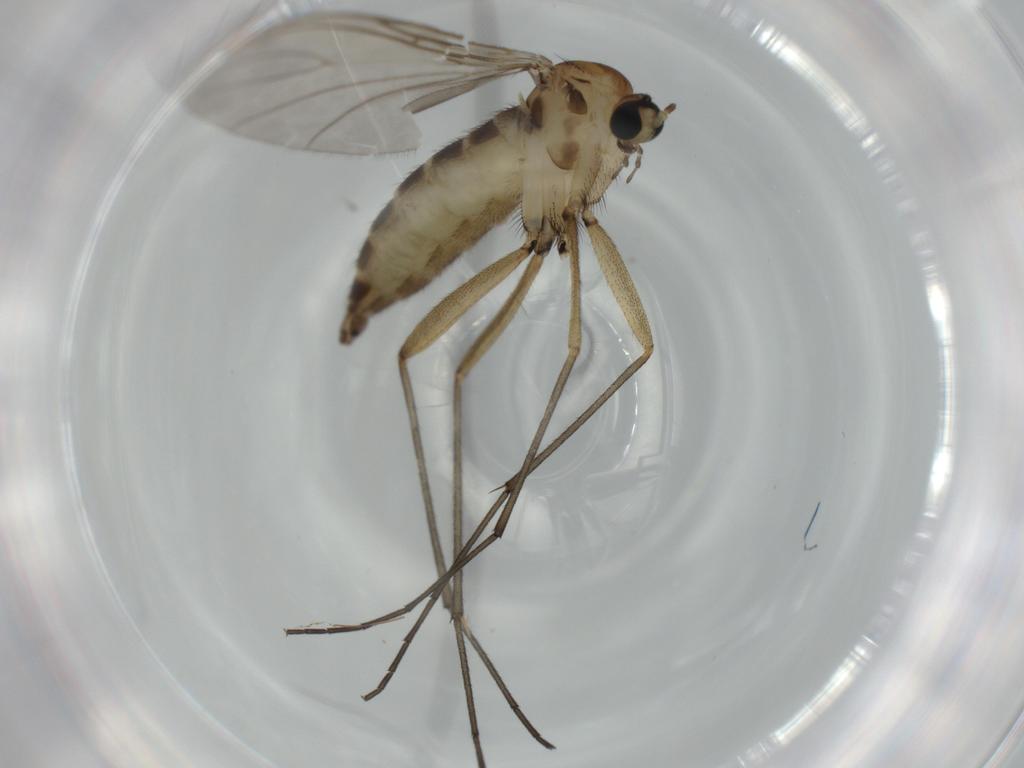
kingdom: Animalia
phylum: Arthropoda
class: Insecta
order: Diptera
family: Sciaridae
